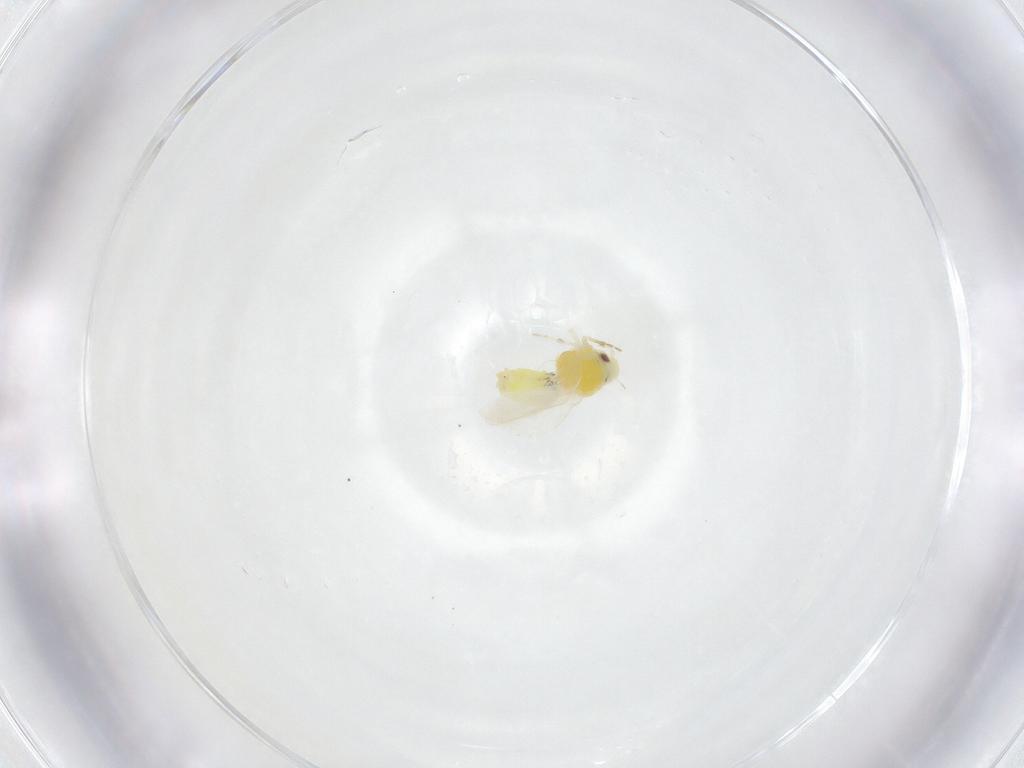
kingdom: Animalia
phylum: Arthropoda
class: Insecta
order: Hemiptera
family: Aleyrodidae
